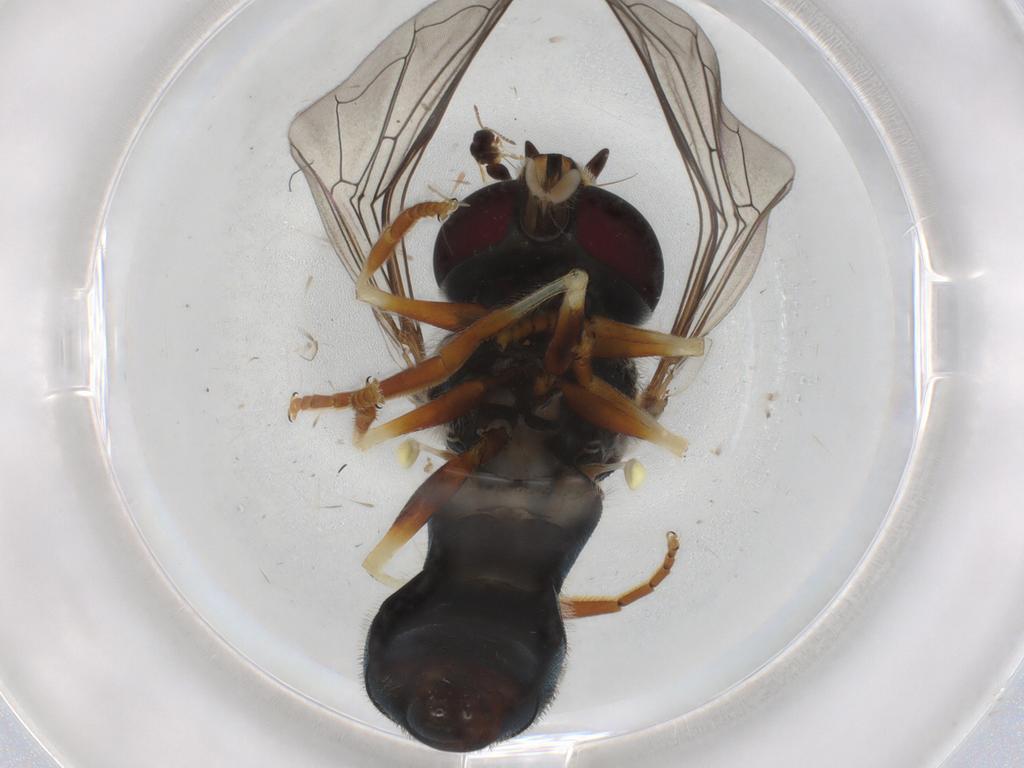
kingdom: Animalia
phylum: Arthropoda
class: Insecta
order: Diptera
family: Syrphidae
